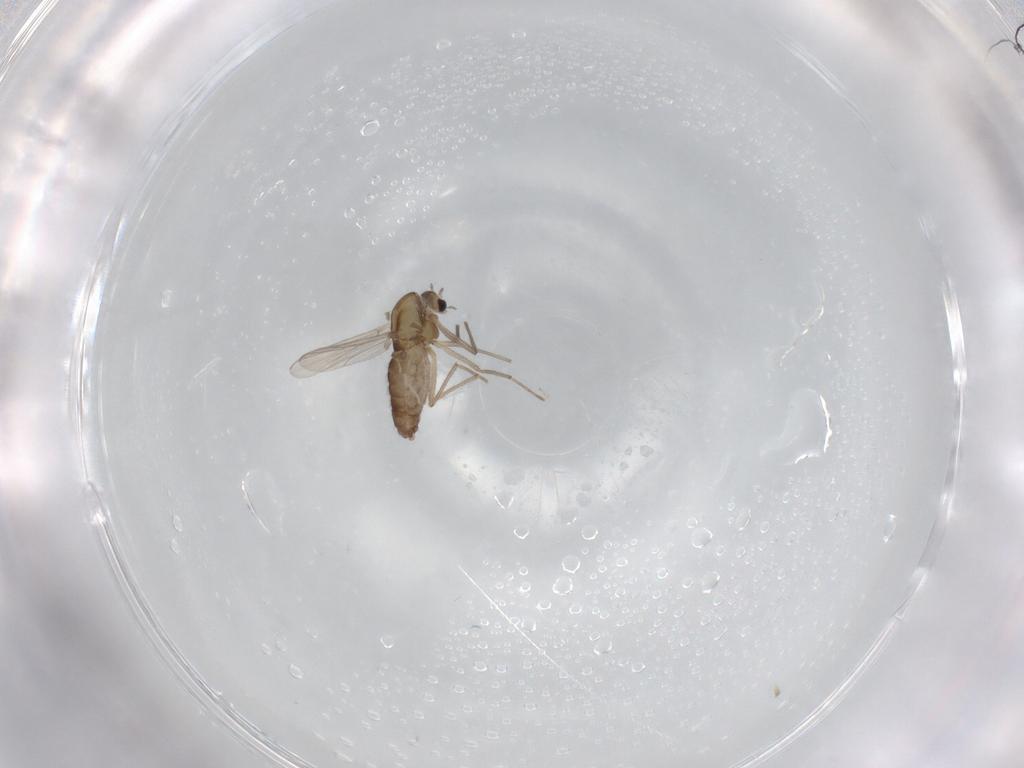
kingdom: Animalia
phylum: Arthropoda
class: Insecta
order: Diptera
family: Chironomidae
